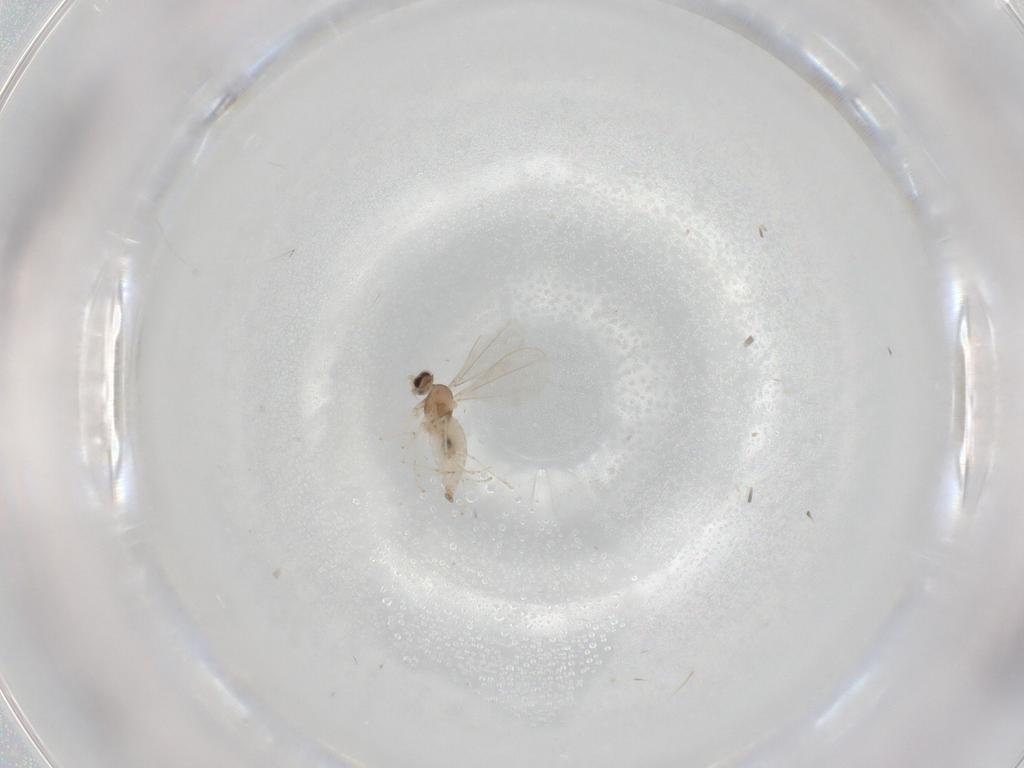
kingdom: Animalia
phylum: Arthropoda
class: Insecta
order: Diptera
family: Cecidomyiidae
